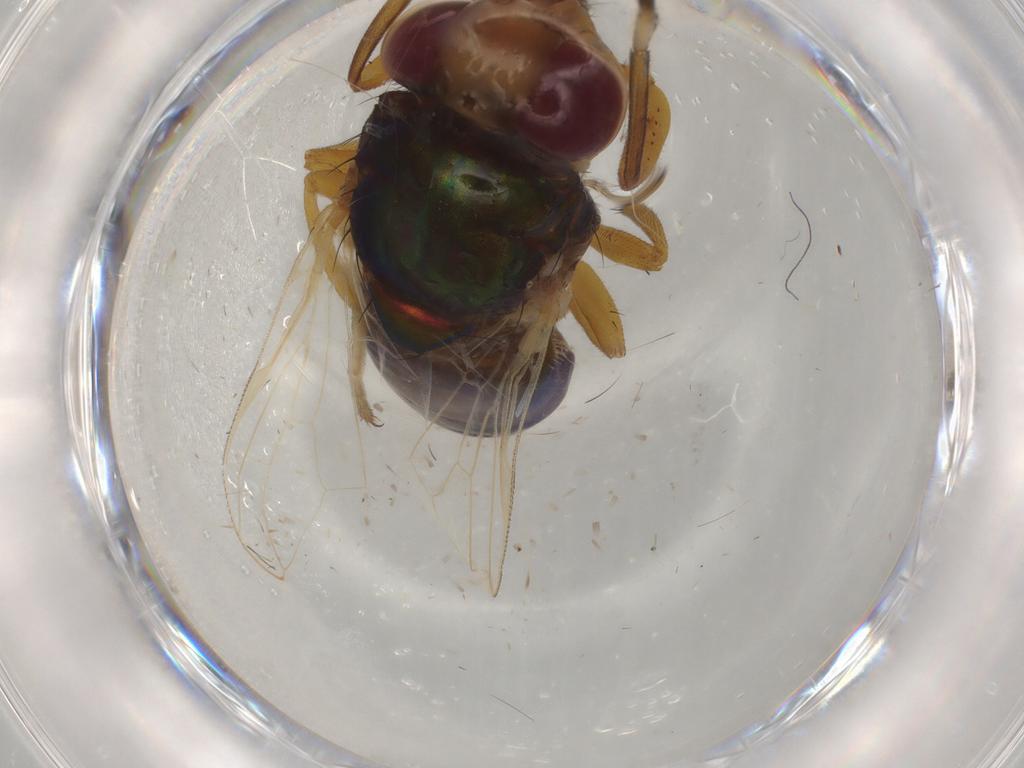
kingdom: Animalia
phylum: Arthropoda
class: Insecta
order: Diptera
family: Ulidiidae
